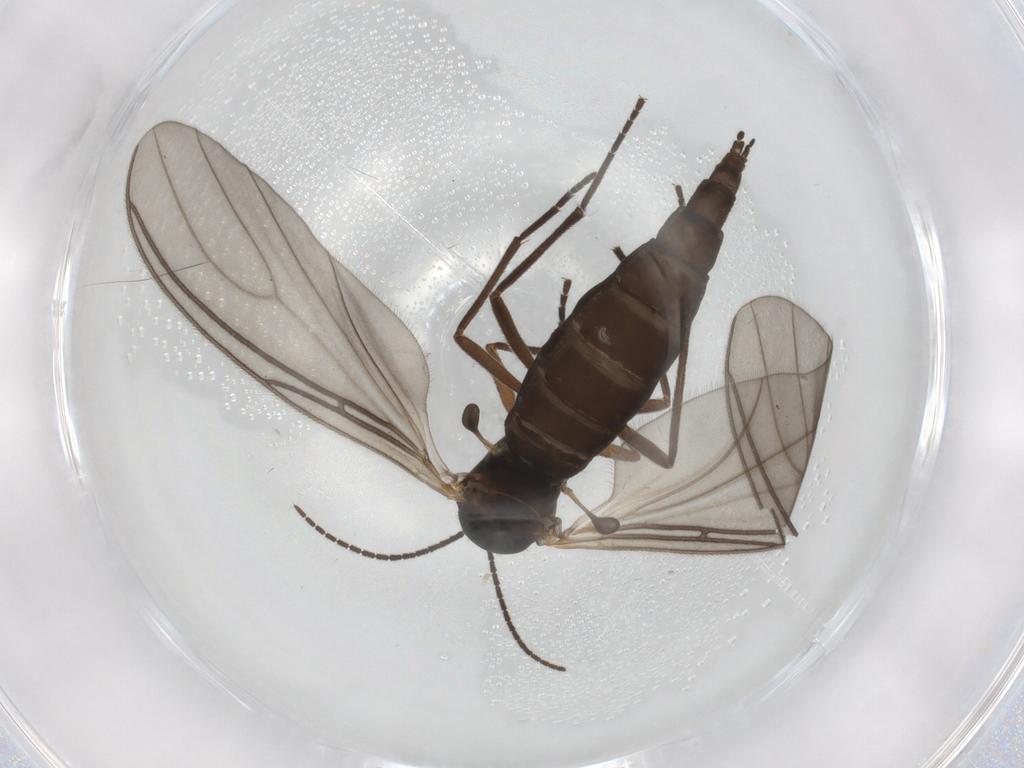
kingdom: Animalia
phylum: Arthropoda
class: Insecta
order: Diptera
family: Sciaridae
